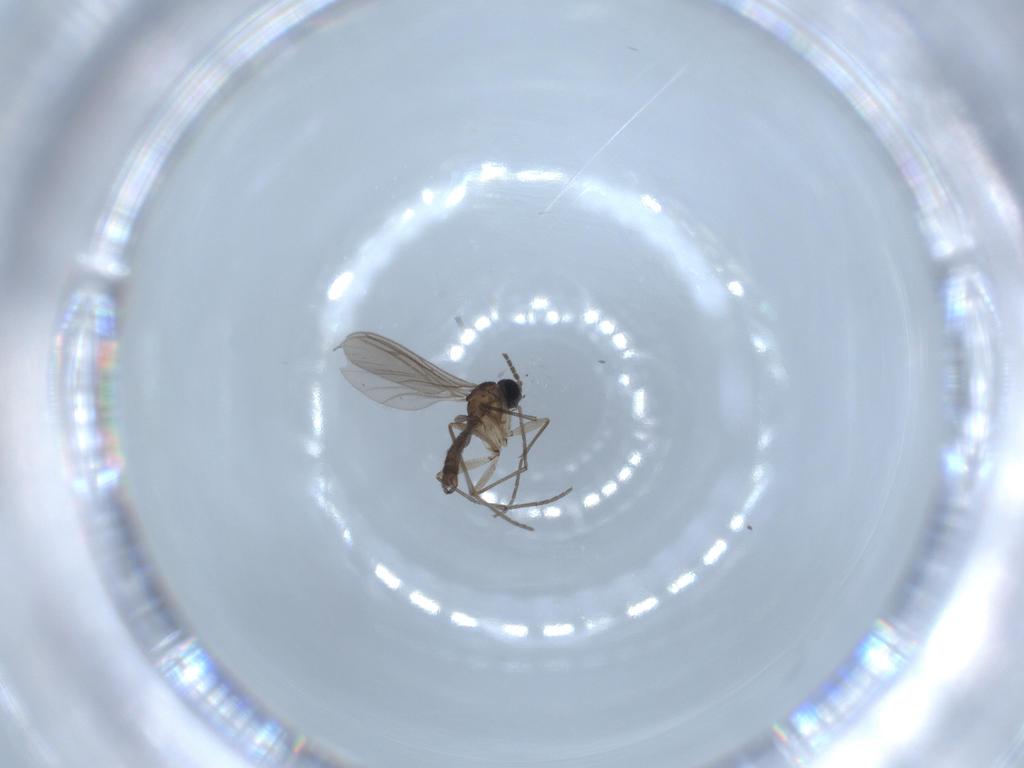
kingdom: Animalia
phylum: Arthropoda
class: Insecta
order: Diptera
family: Sciaridae
